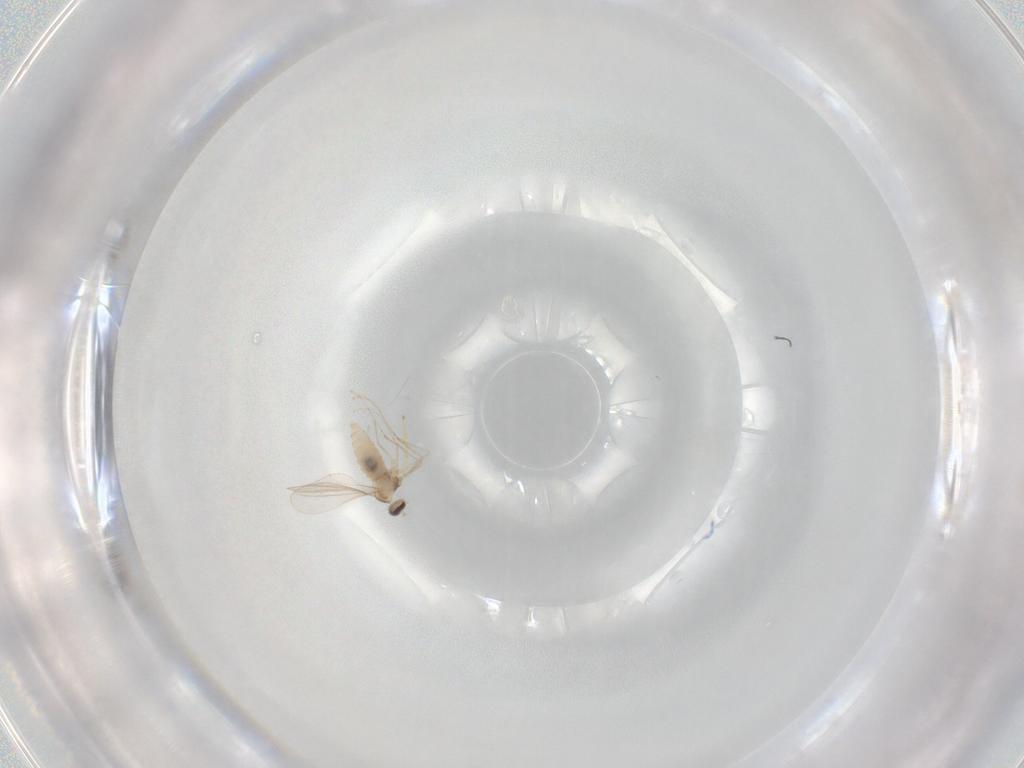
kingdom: Animalia
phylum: Arthropoda
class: Insecta
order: Diptera
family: Cecidomyiidae
